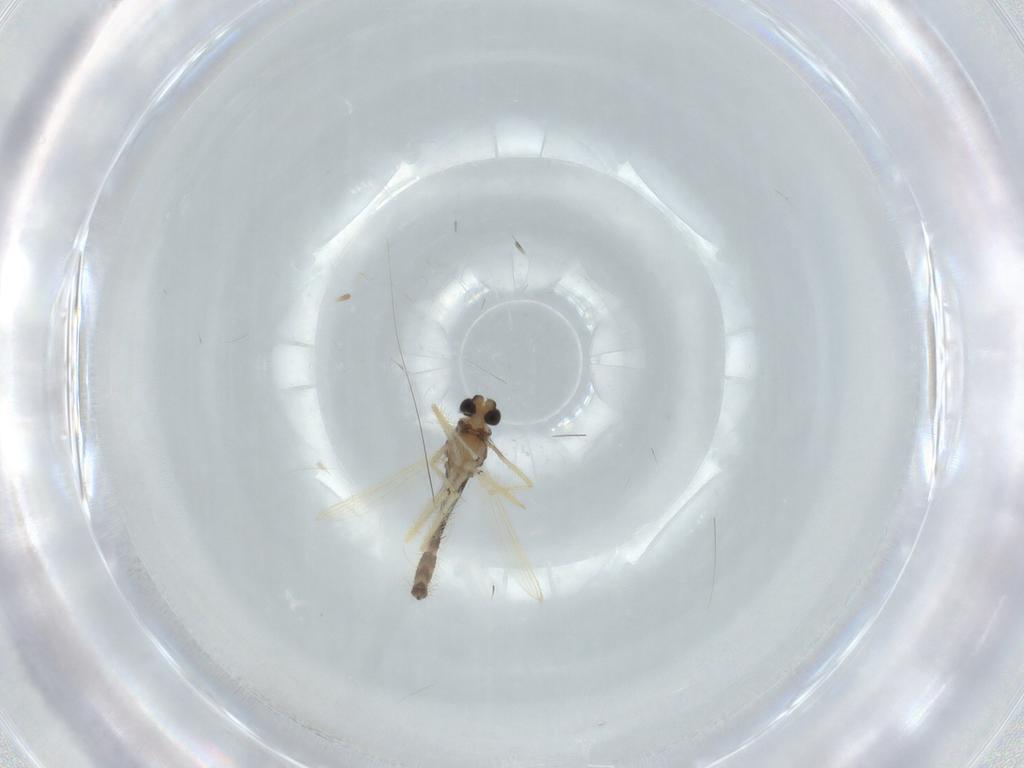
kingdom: Animalia
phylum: Arthropoda
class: Insecta
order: Diptera
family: Chironomidae
